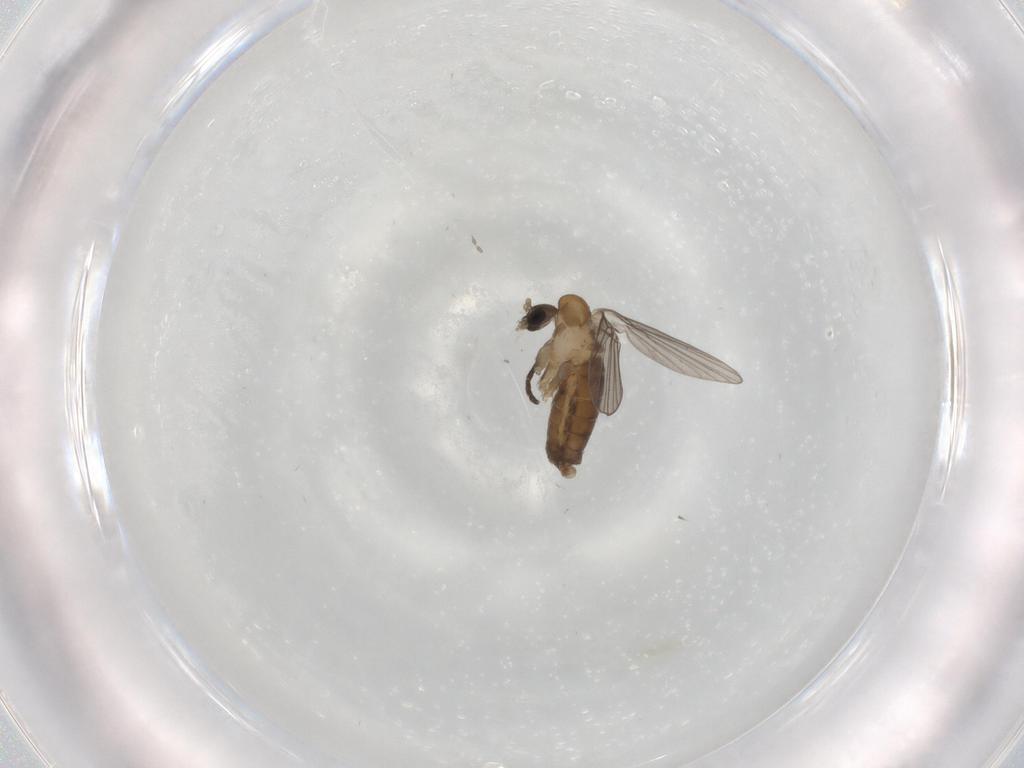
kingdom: Animalia
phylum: Arthropoda
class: Insecta
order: Diptera
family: Psychodidae
